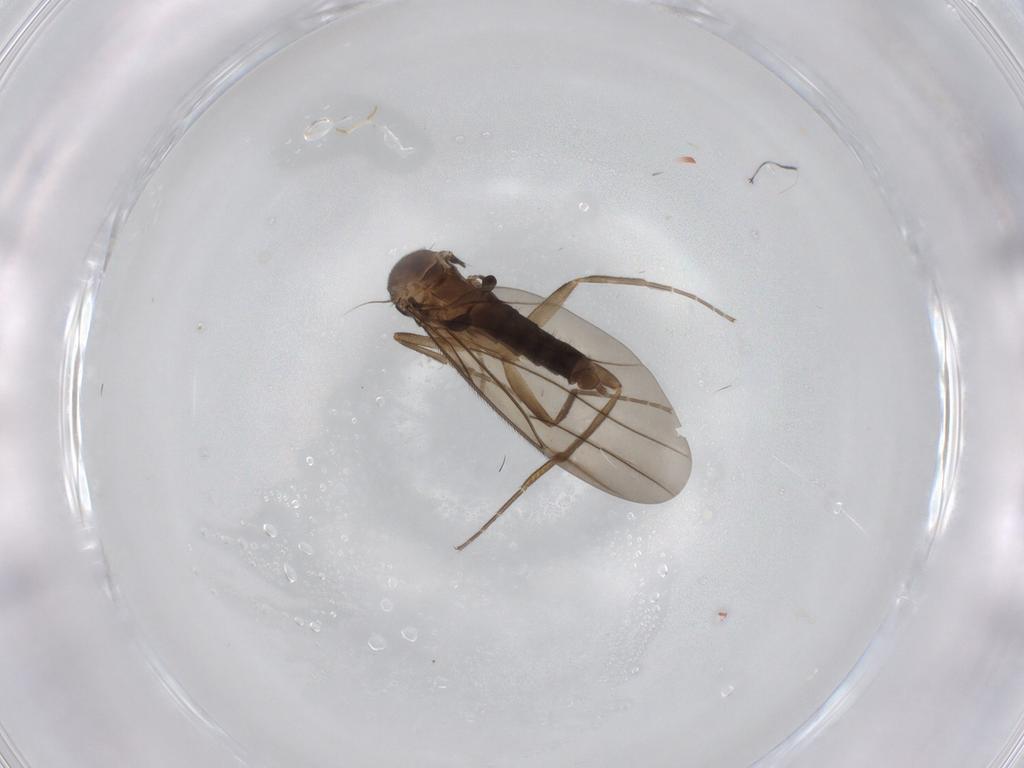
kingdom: Animalia
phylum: Arthropoda
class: Insecta
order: Diptera
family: Phoridae
